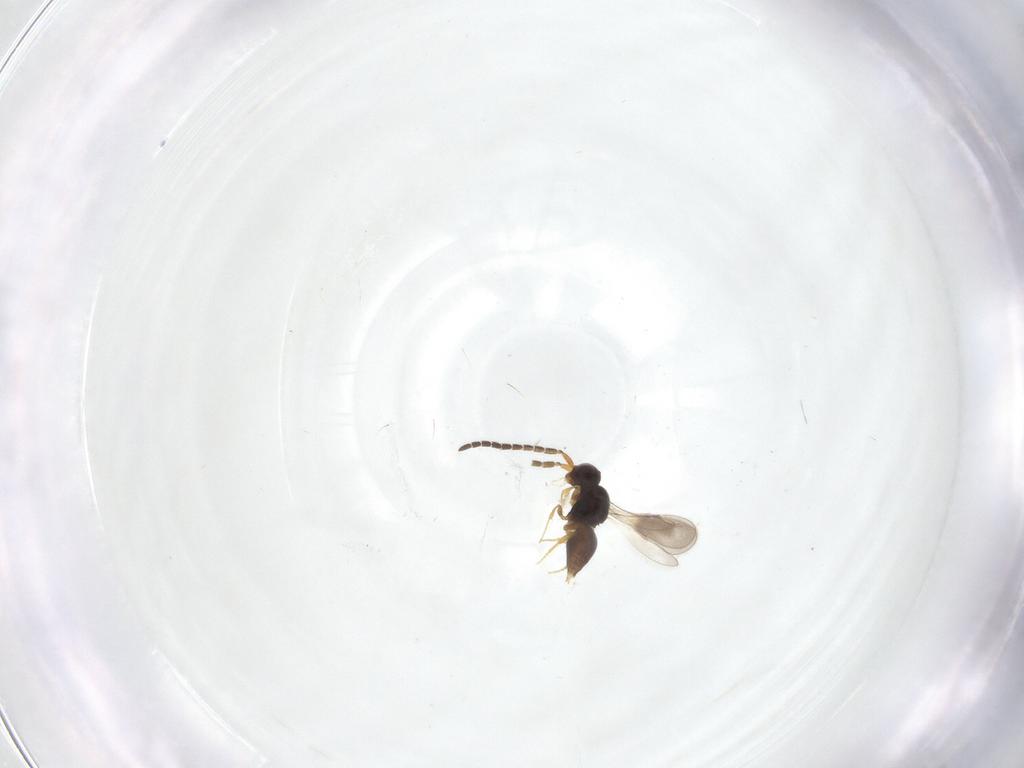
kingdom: Animalia
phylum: Arthropoda
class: Insecta
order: Hymenoptera
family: Ceraphronidae
